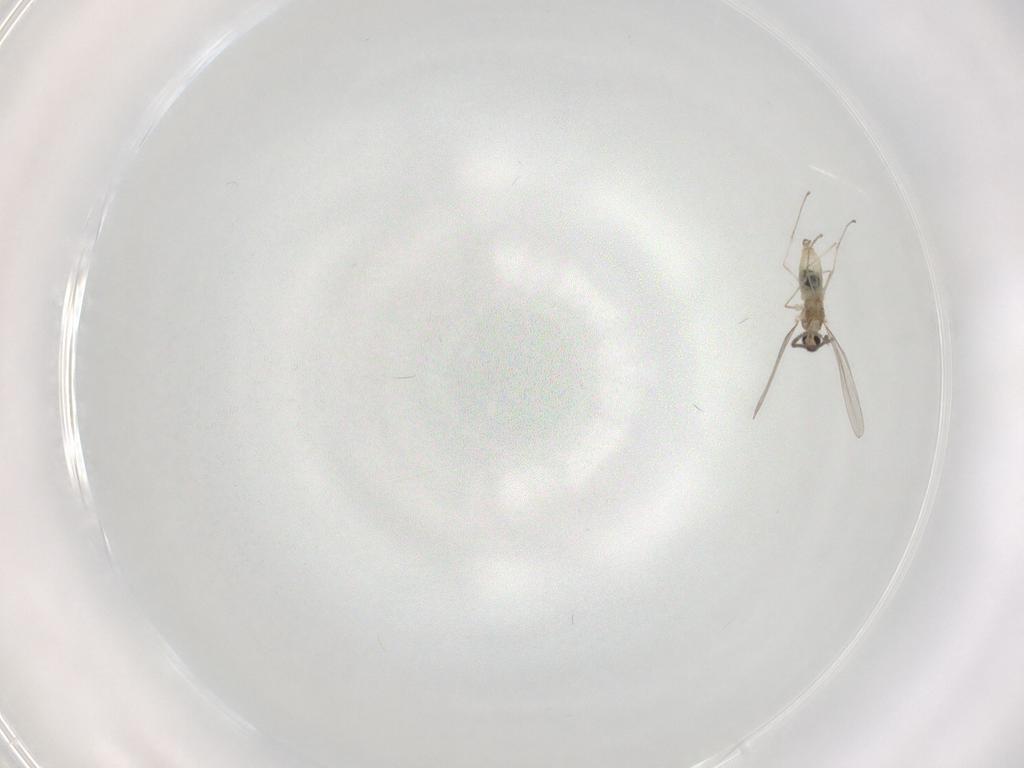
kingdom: Animalia
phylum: Arthropoda
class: Insecta
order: Diptera
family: Cecidomyiidae
